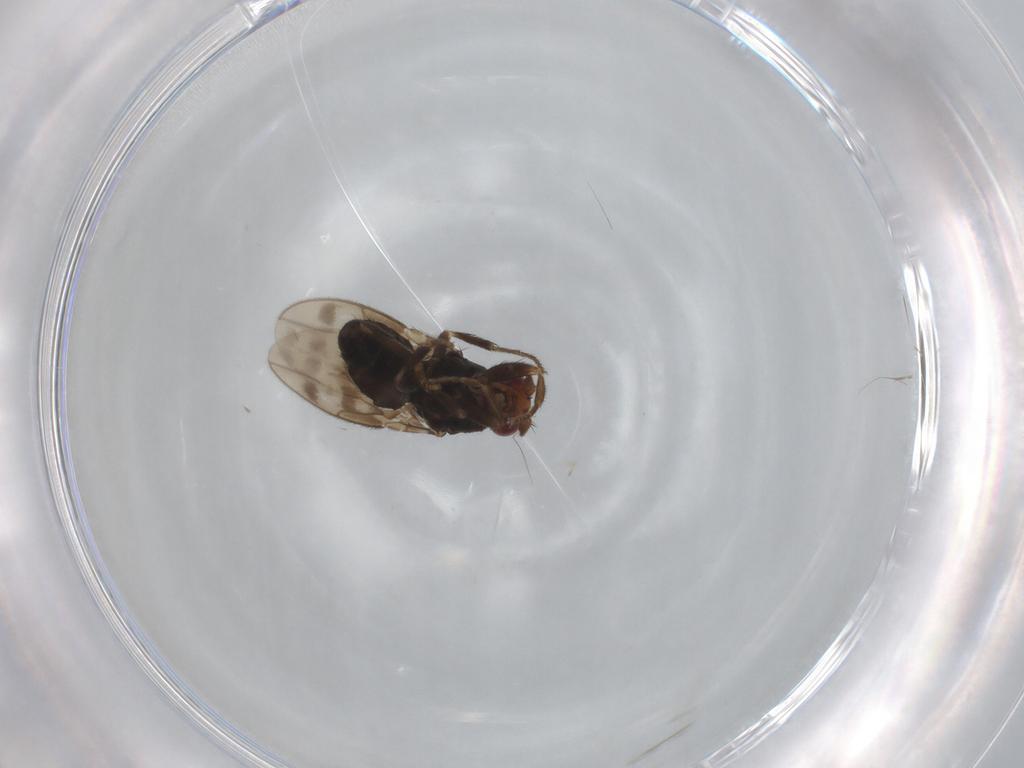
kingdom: Animalia
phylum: Arthropoda
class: Insecta
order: Diptera
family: Sphaeroceridae
